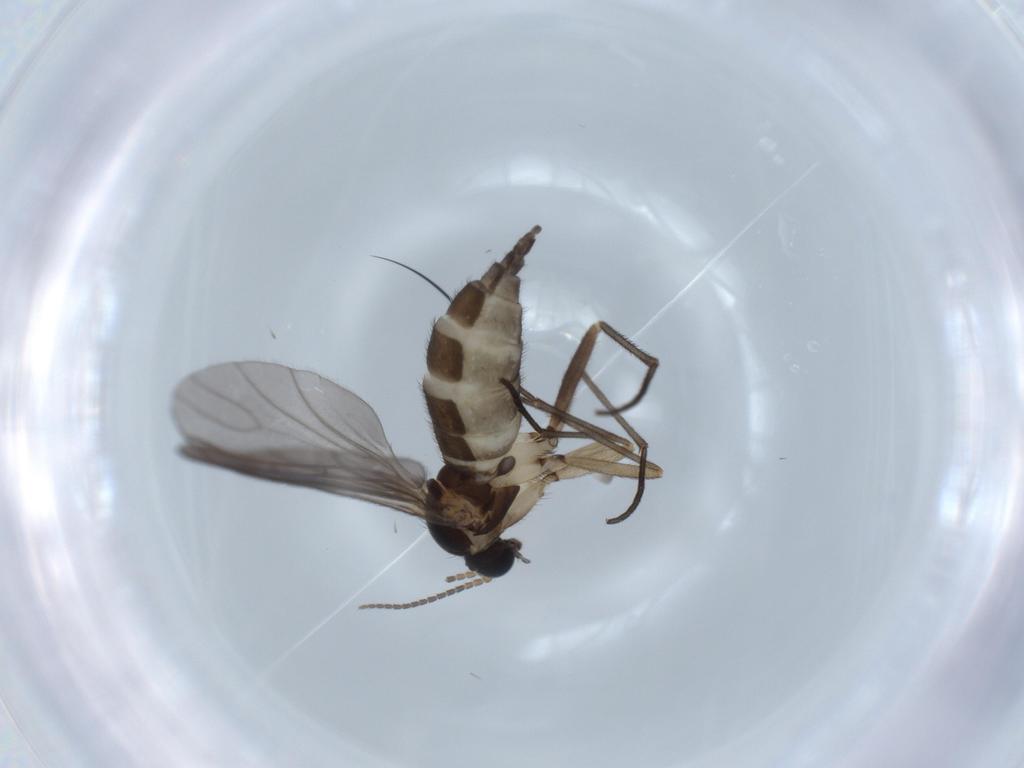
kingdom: Animalia
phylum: Arthropoda
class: Insecta
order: Diptera
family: Sciaridae
